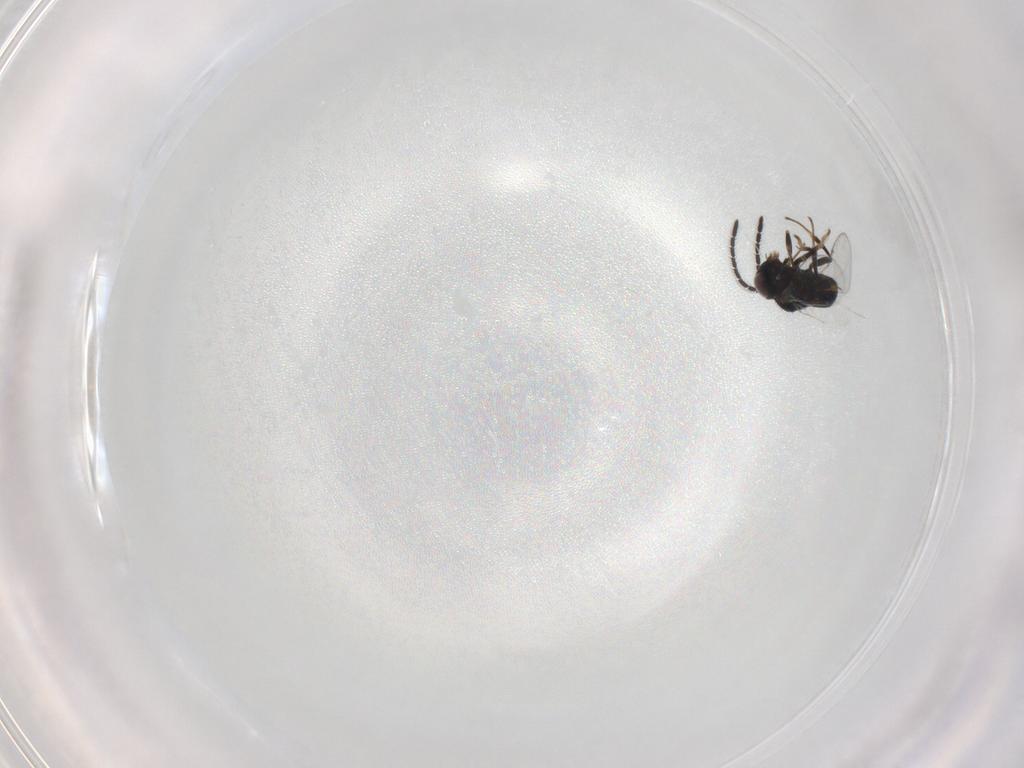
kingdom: Animalia
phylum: Arthropoda
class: Insecta
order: Hymenoptera
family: Encyrtidae
